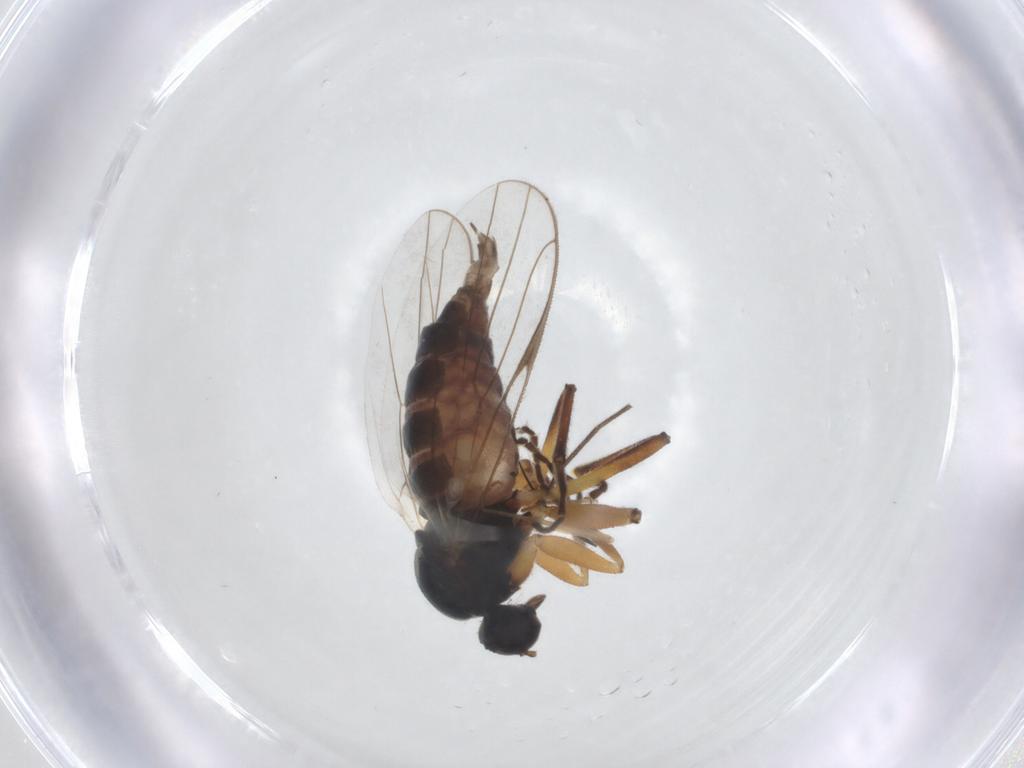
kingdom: Animalia
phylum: Arthropoda
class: Insecta
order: Diptera
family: Hybotidae
